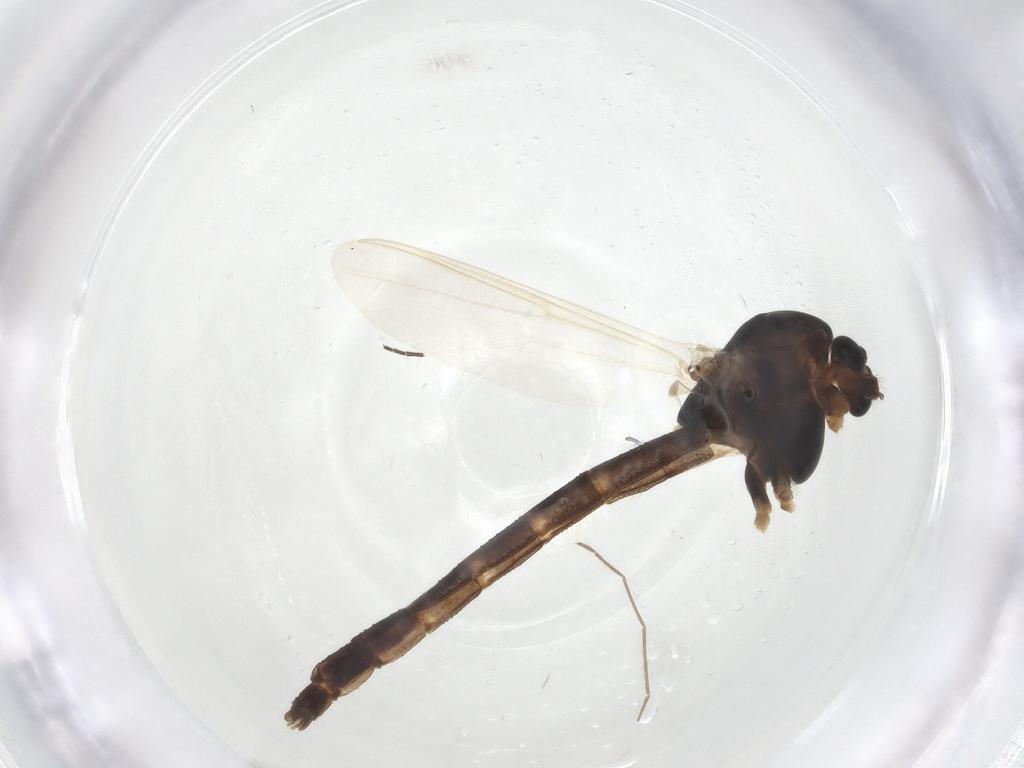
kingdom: Animalia
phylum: Arthropoda
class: Insecta
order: Diptera
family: Chironomidae
